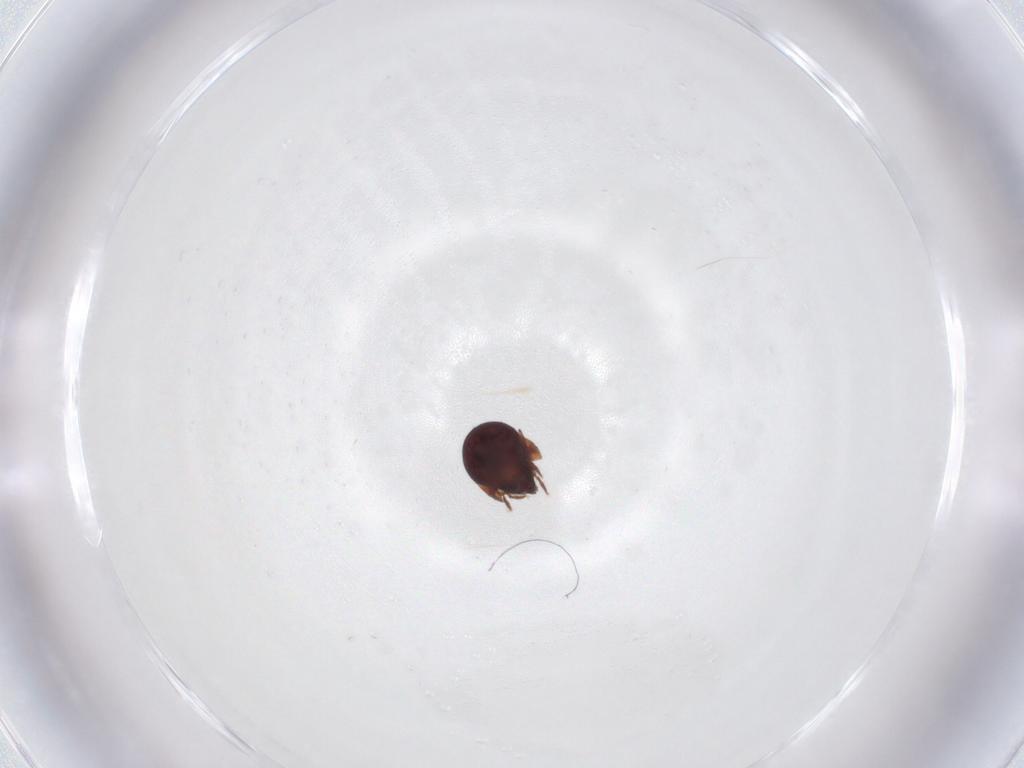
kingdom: Animalia
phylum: Arthropoda
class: Arachnida
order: Sarcoptiformes
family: Humerobatidae
